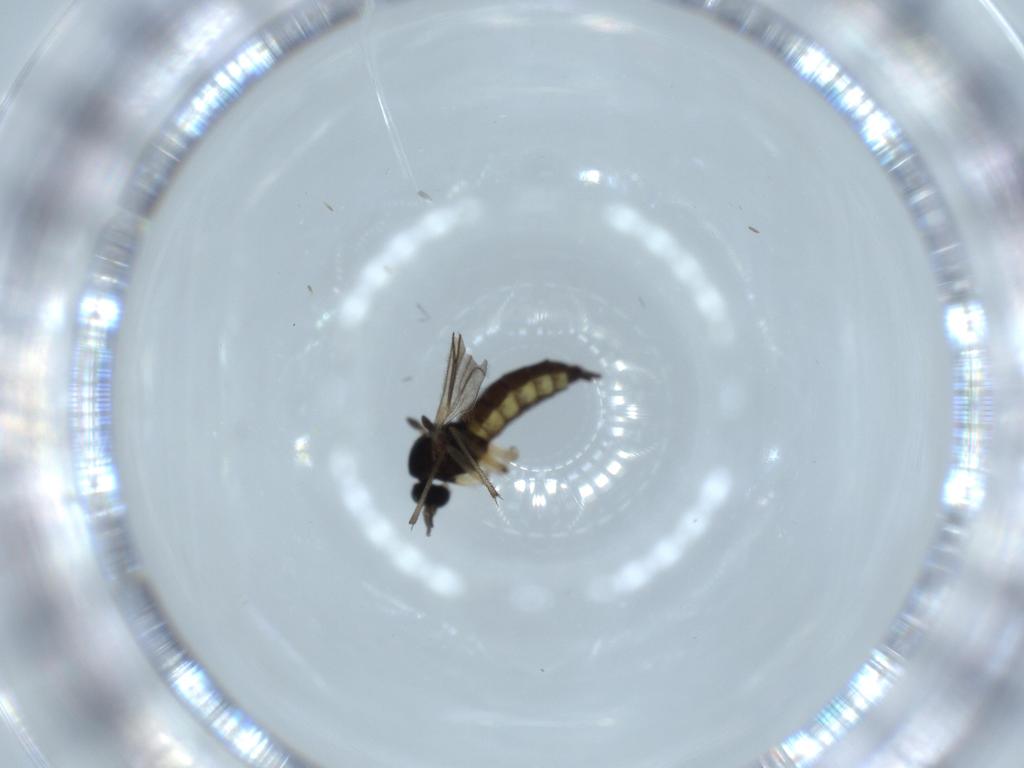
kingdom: Animalia
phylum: Arthropoda
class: Insecta
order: Diptera
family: Sciaridae
